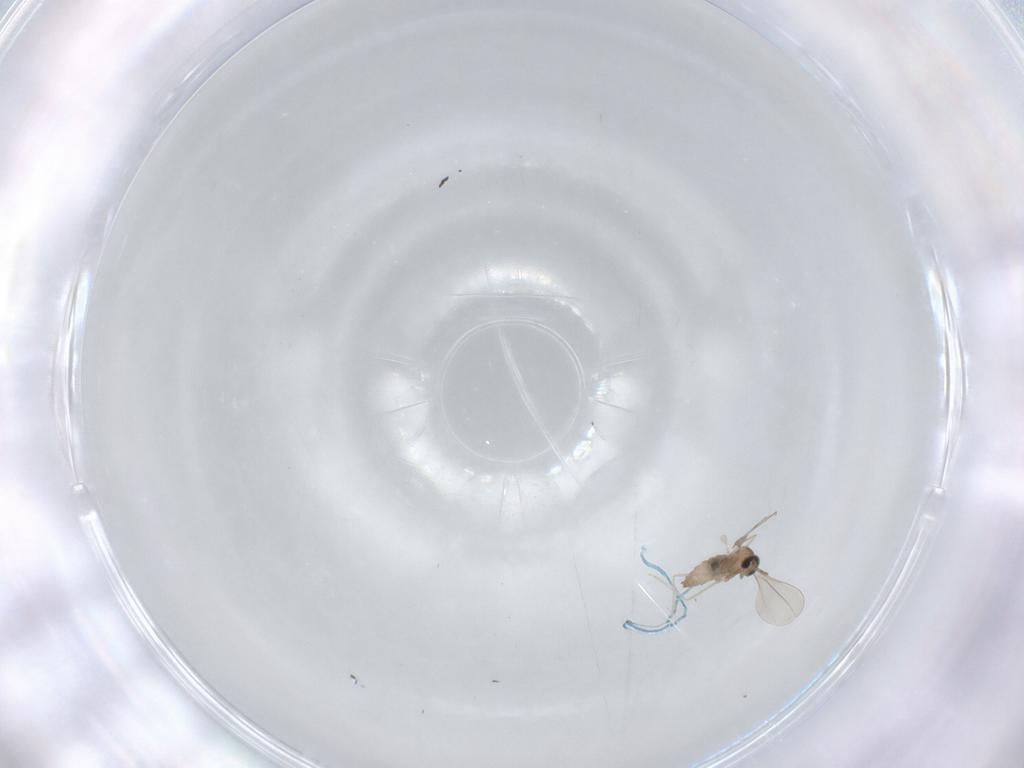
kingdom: Animalia
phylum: Arthropoda
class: Insecta
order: Diptera
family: Cecidomyiidae
